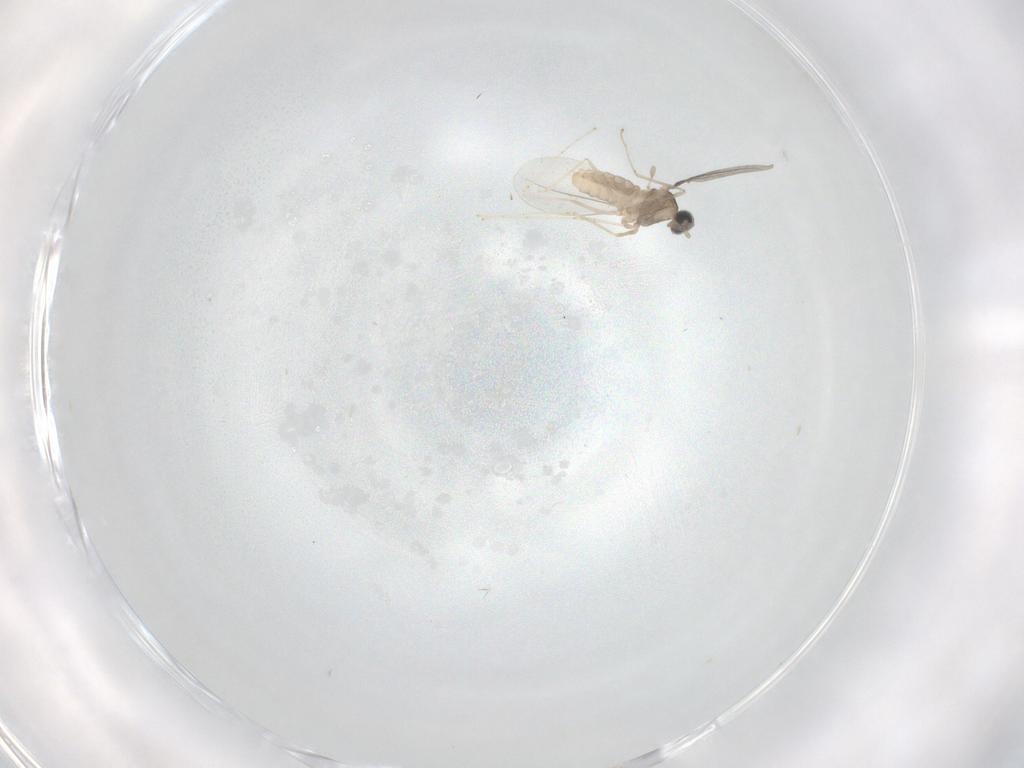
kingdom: Animalia
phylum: Arthropoda
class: Insecta
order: Diptera
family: Cecidomyiidae
